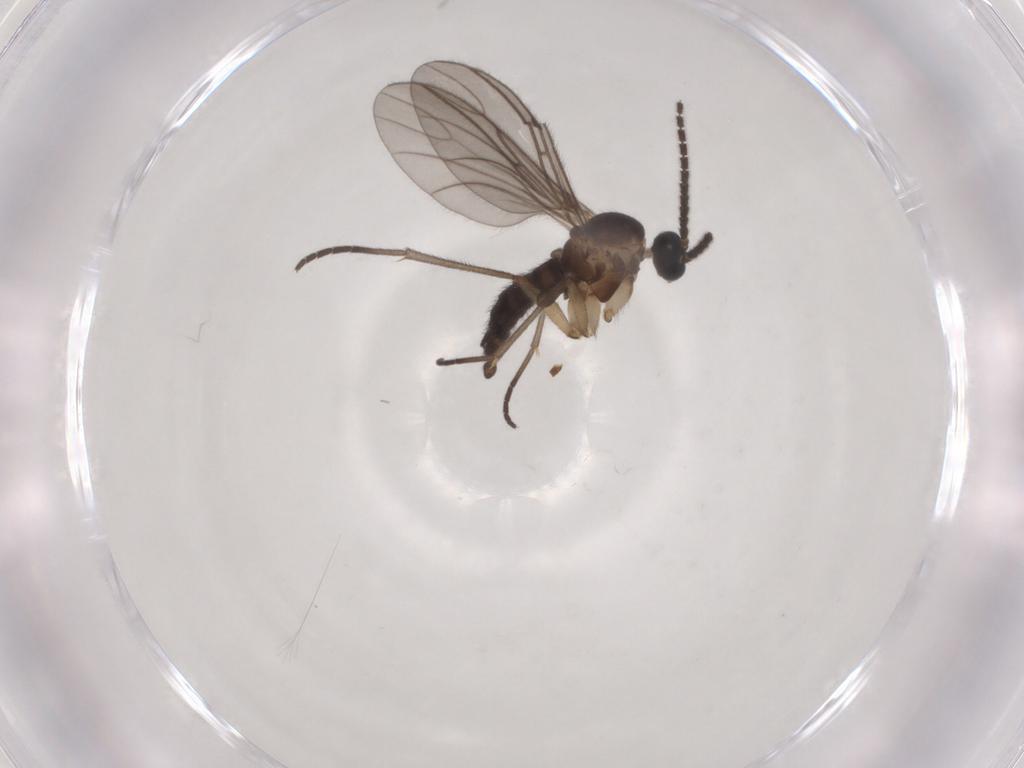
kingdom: Animalia
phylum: Arthropoda
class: Insecta
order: Diptera
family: Sciaridae
